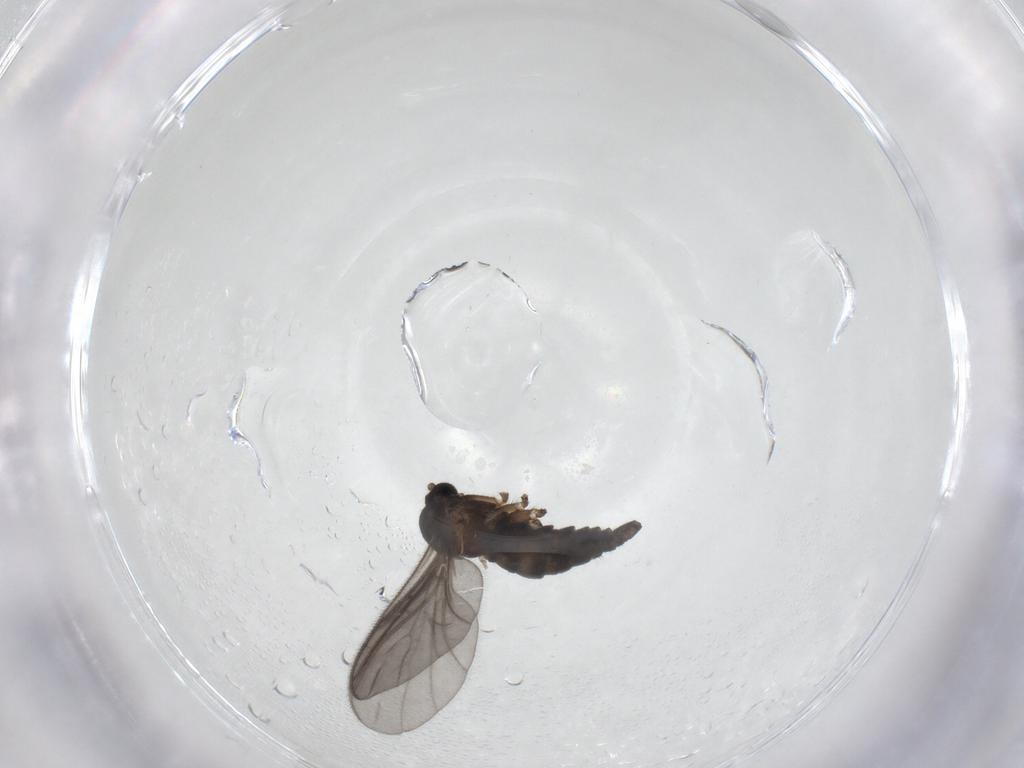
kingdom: Animalia
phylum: Arthropoda
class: Insecta
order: Diptera
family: Sciaridae
